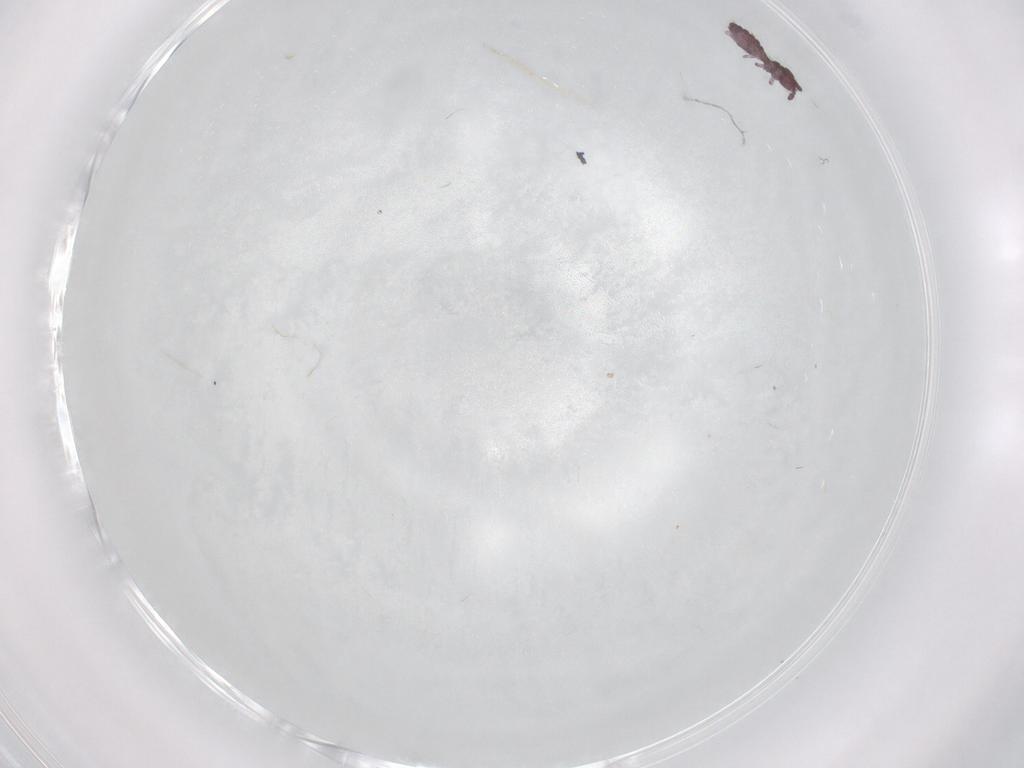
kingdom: Animalia
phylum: Arthropoda
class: Collembola
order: Poduromorpha
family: Hypogastruridae
